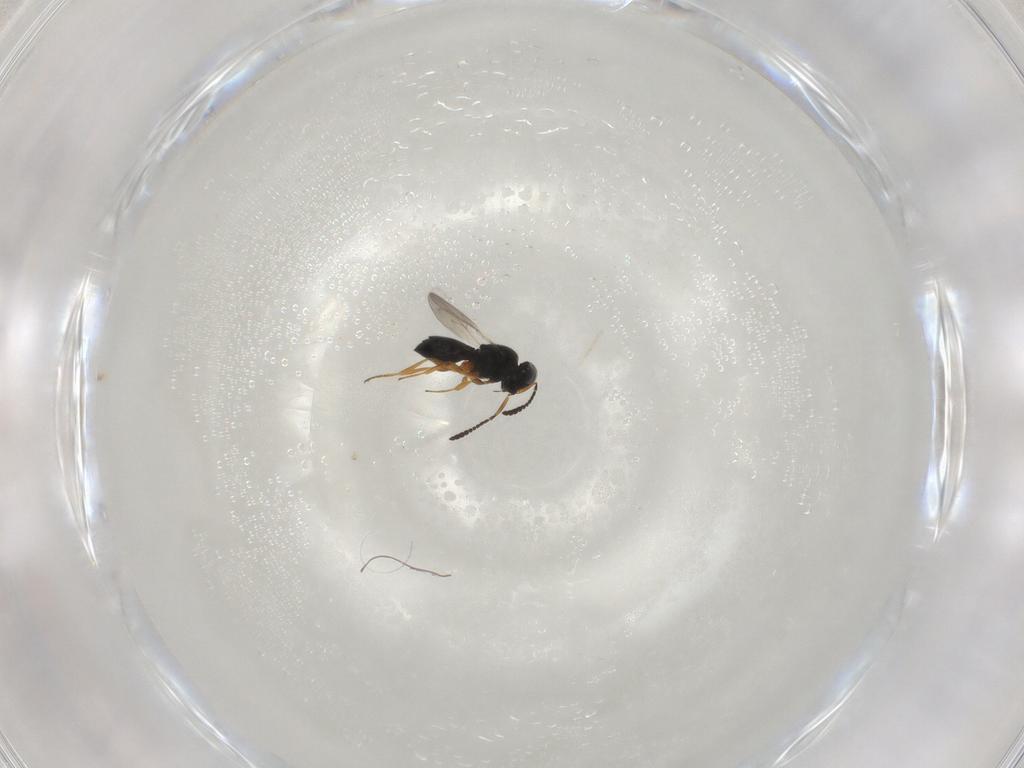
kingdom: Animalia
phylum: Arthropoda
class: Insecta
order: Hymenoptera
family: Scelionidae
